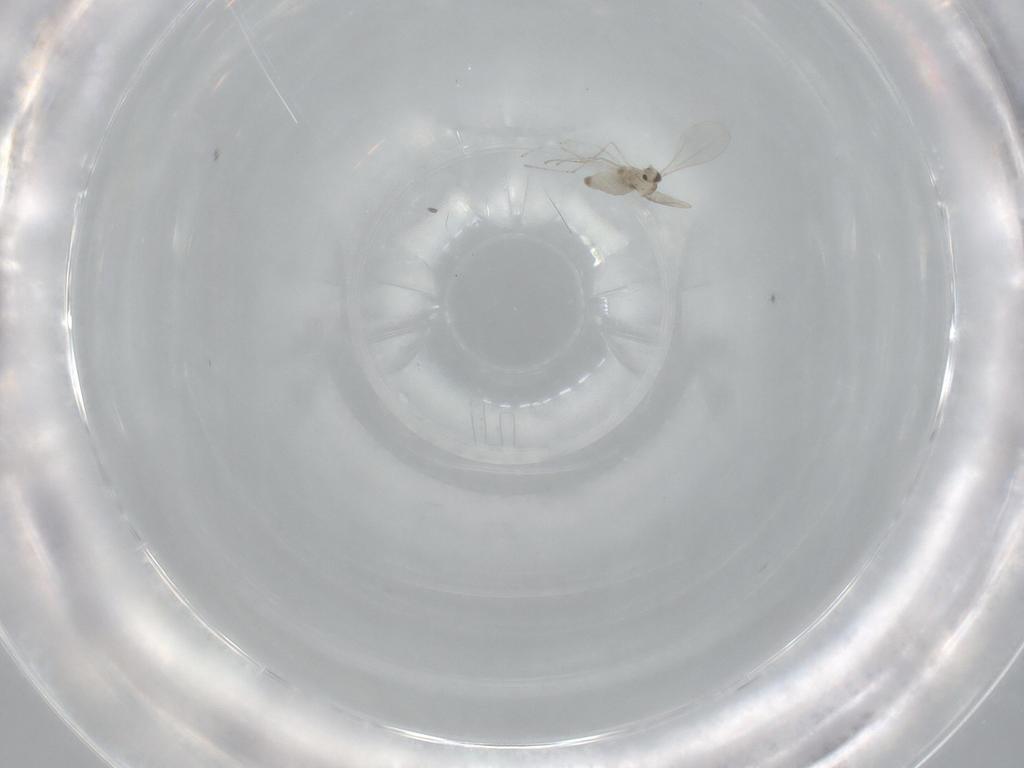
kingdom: Animalia
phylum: Arthropoda
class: Insecta
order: Diptera
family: Cecidomyiidae
